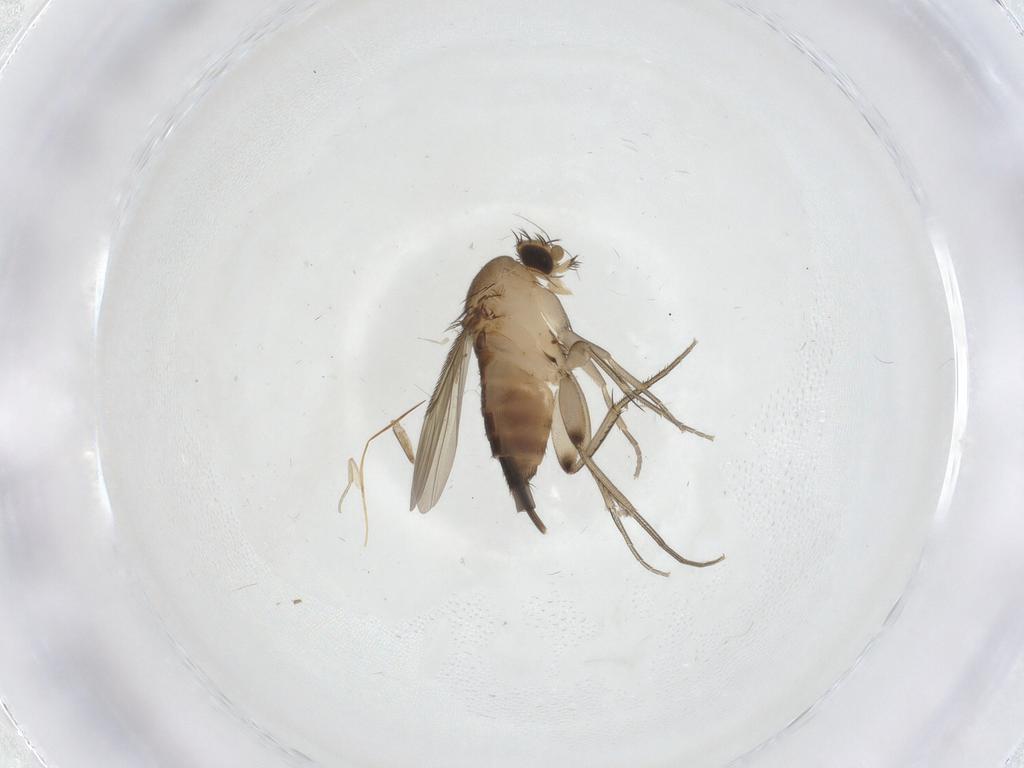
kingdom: Animalia
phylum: Arthropoda
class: Insecta
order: Diptera
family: Phoridae
